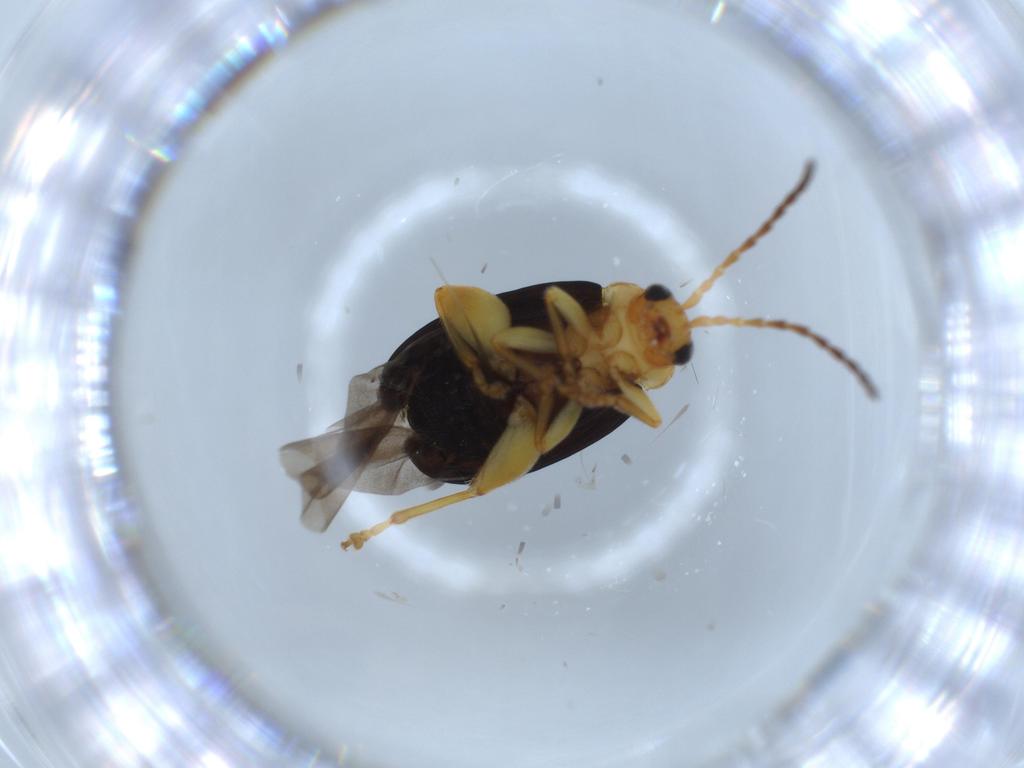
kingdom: Animalia
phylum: Arthropoda
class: Insecta
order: Coleoptera
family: Chrysomelidae
